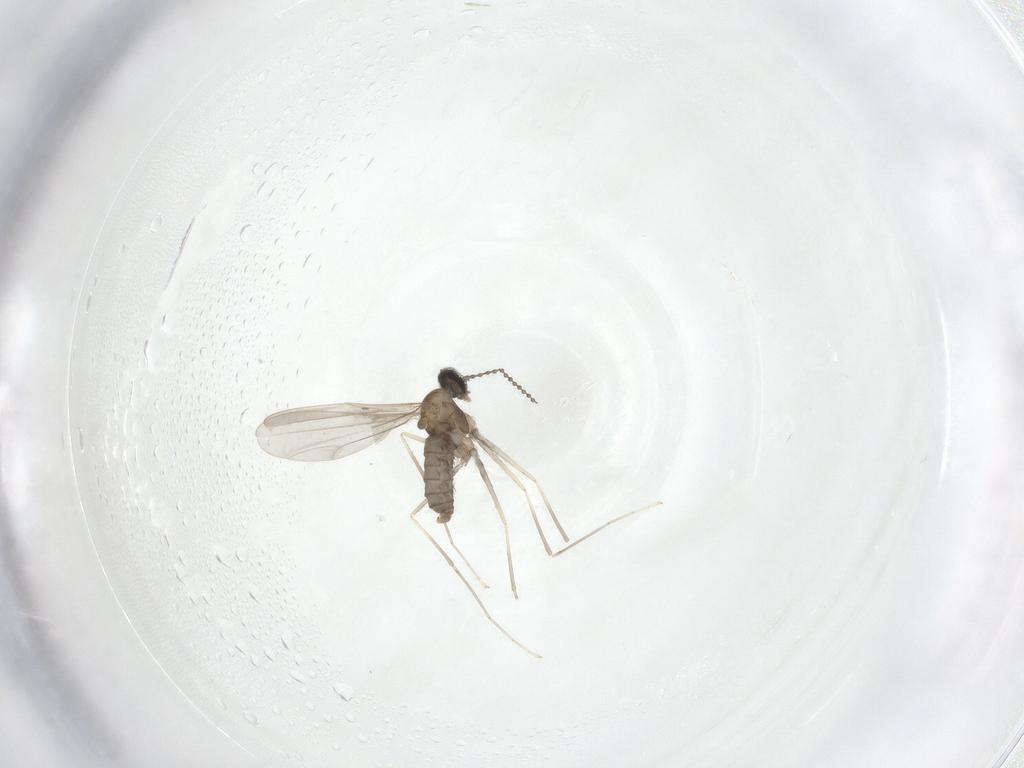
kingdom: Animalia
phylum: Arthropoda
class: Insecta
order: Diptera
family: Cecidomyiidae
